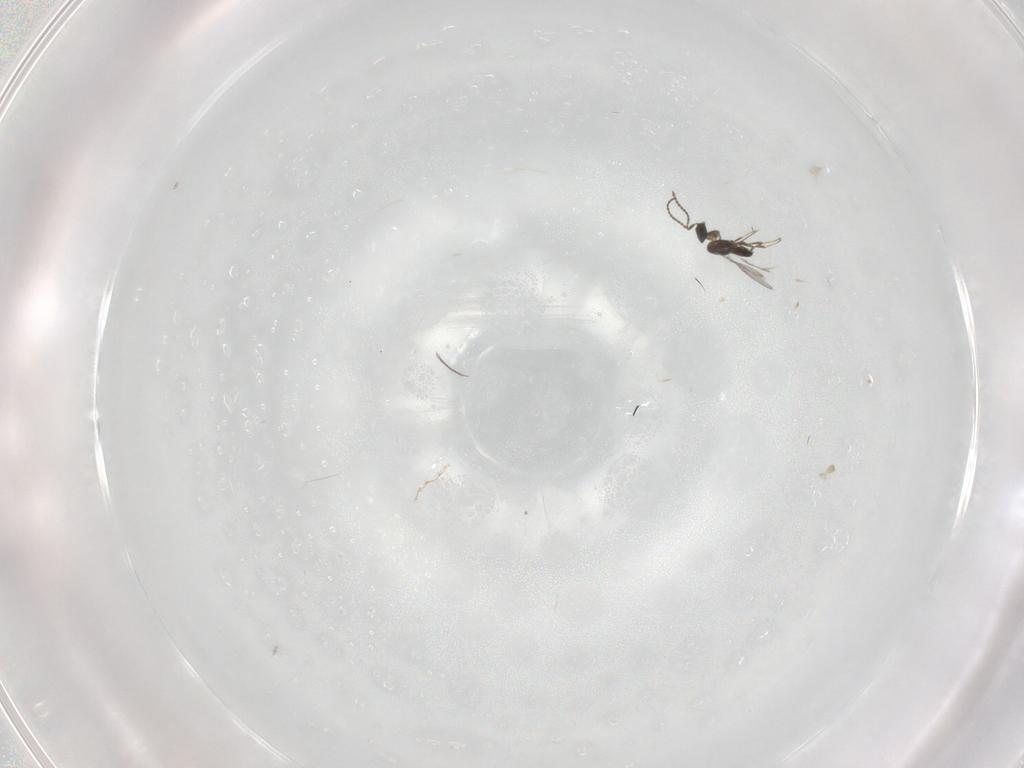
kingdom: Animalia
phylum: Arthropoda
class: Insecta
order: Hymenoptera
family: Scelionidae
